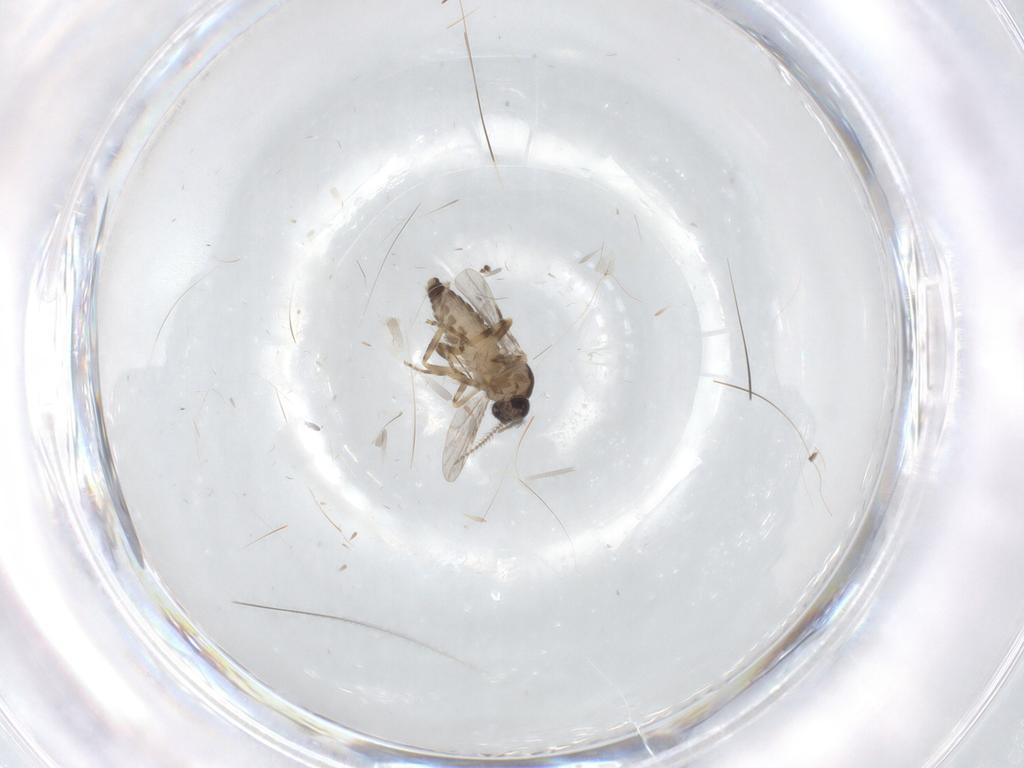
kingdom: Animalia
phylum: Arthropoda
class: Insecta
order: Diptera
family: Ceratopogonidae
